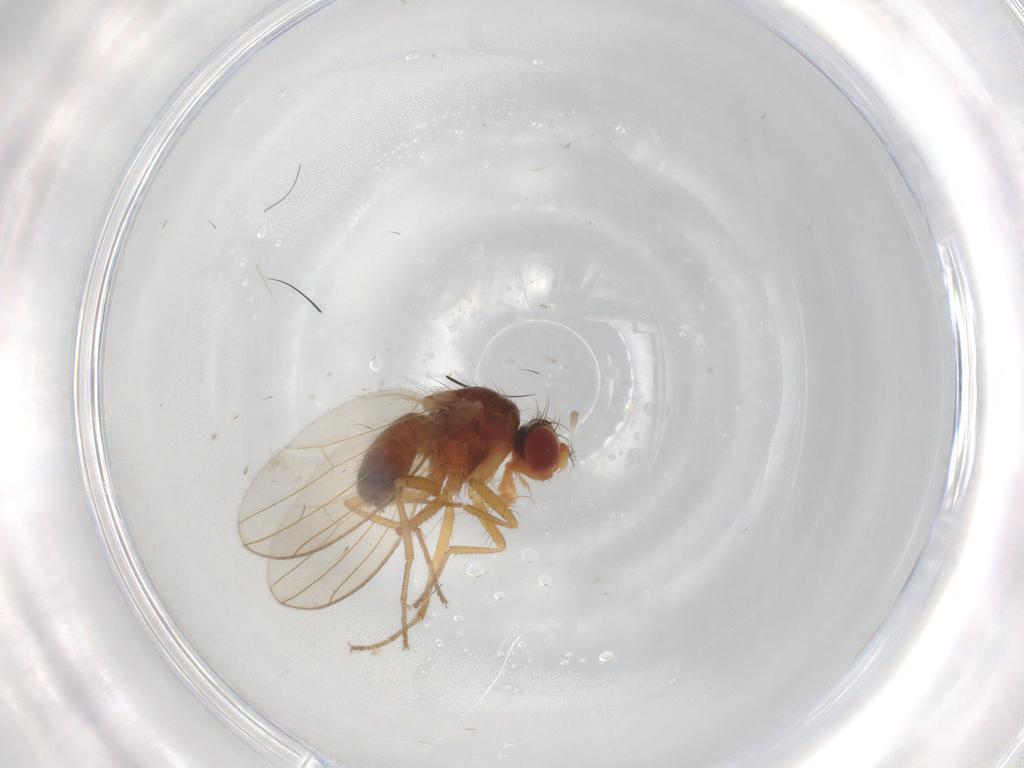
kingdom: Animalia
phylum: Arthropoda
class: Insecta
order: Diptera
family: Drosophilidae
